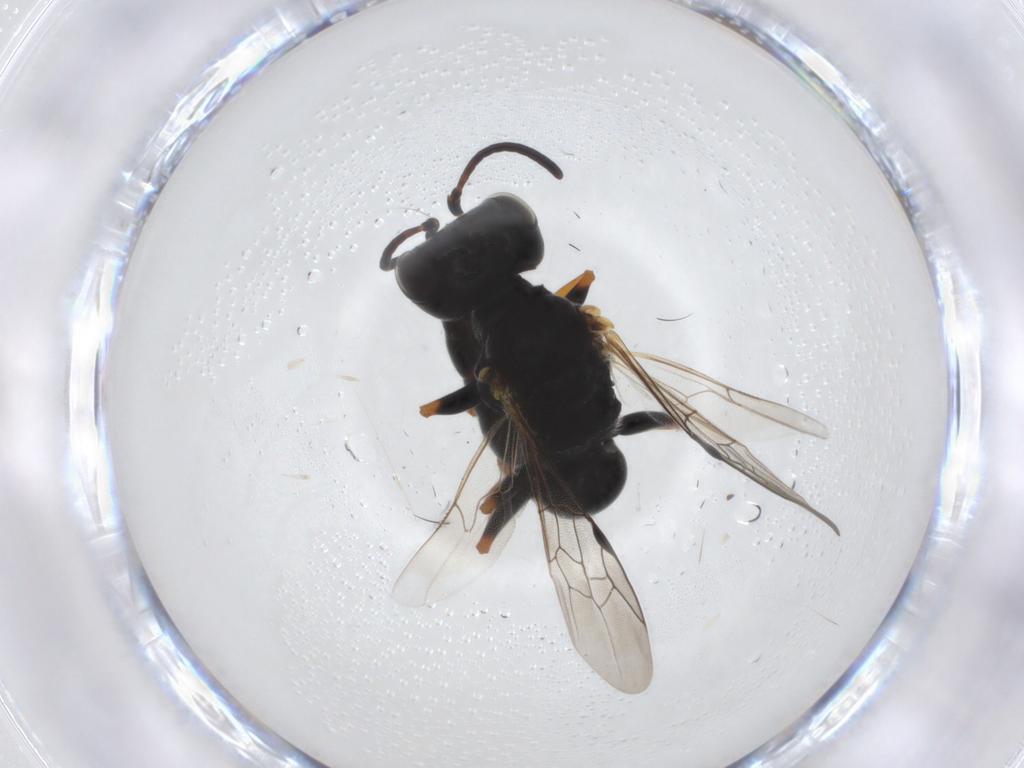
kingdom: Animalia
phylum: Arthropoda
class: Insecta
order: Hymenoptera
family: Pemphredonidae
